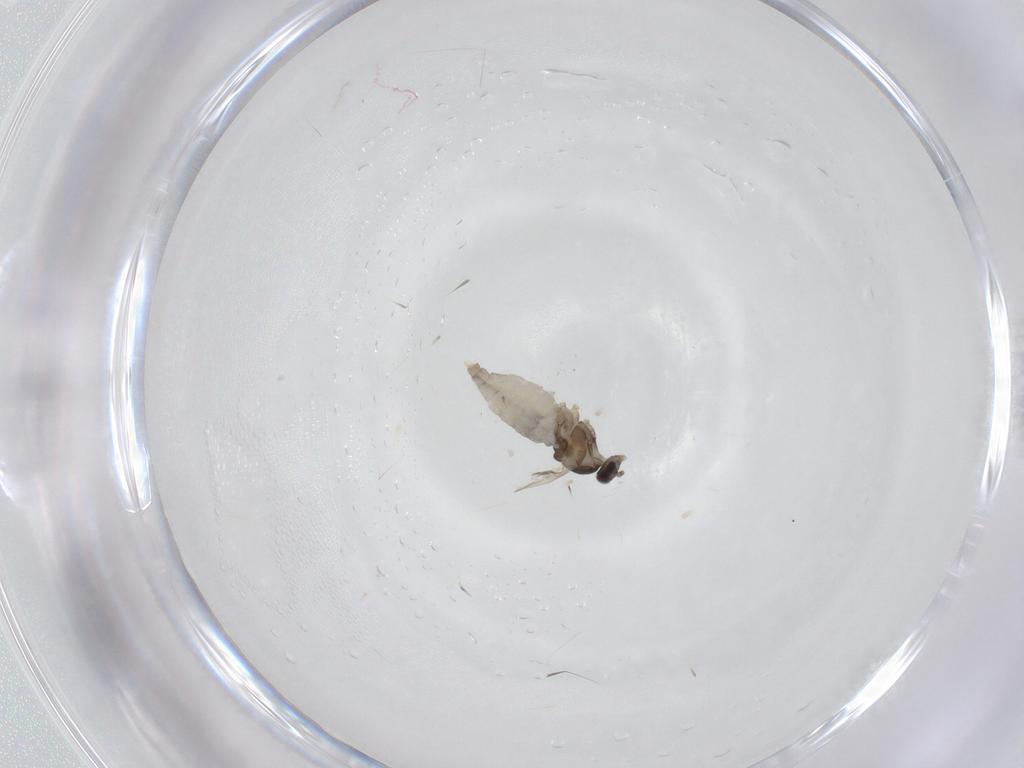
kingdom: Animalia
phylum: Arthropoda
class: Insecta
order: Diptera
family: Cecidomyiidae
